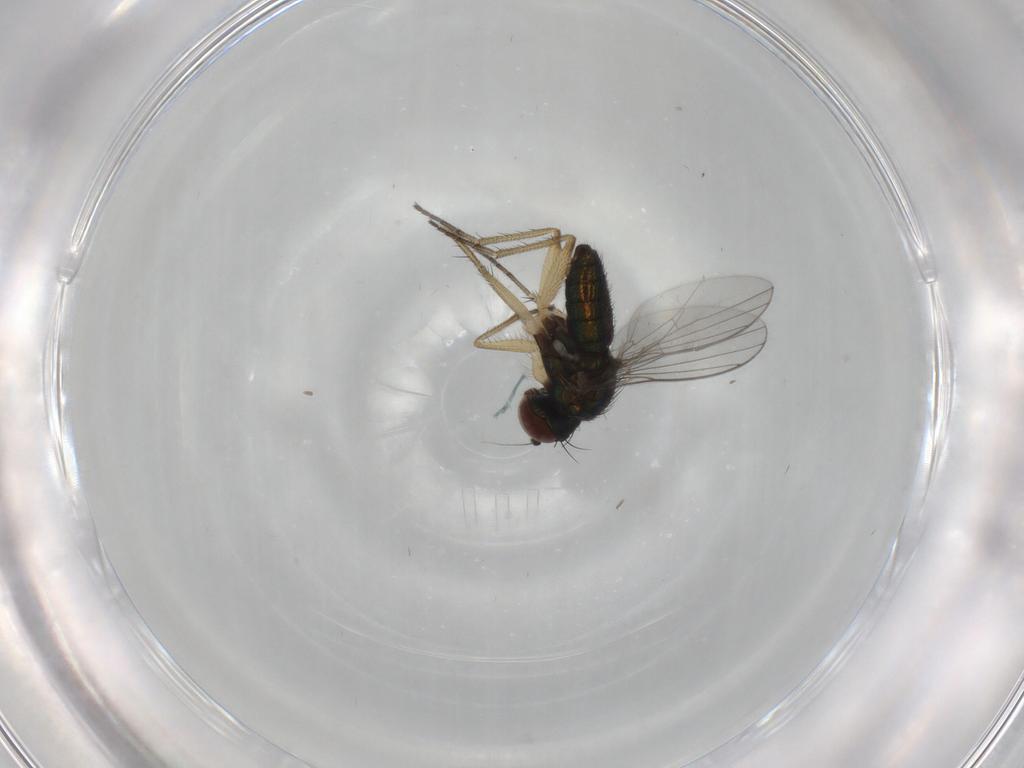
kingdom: Animalia
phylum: Arthropoda
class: Insecta
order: Diptera
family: Dolichopodidae
